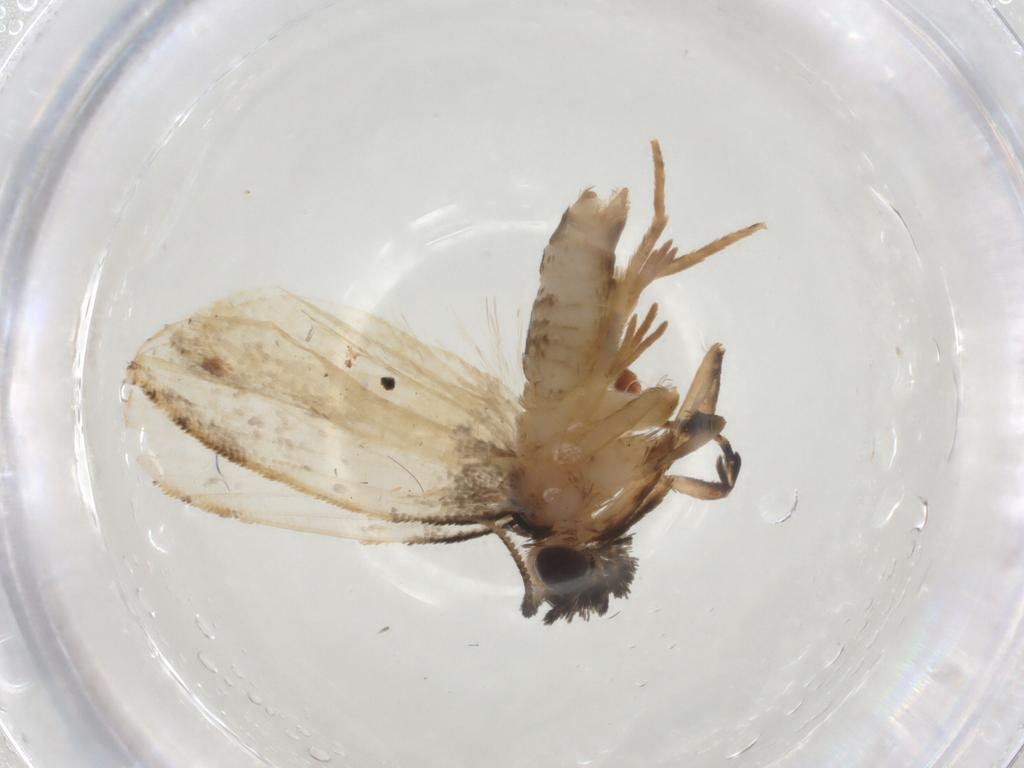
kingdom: Animalia
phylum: Arthropoda
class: Insecta
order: Lepidoptera
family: Psychidae
